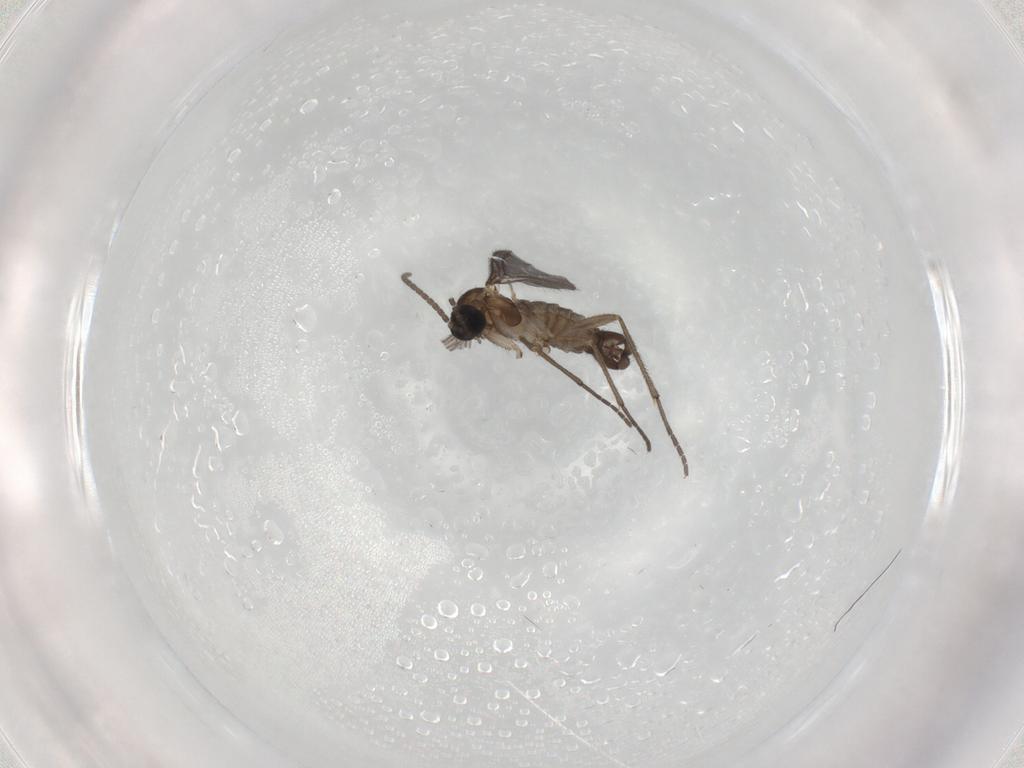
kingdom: Animalia
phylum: Arthropoda
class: Insecta
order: Diptera
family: Sciaridae
